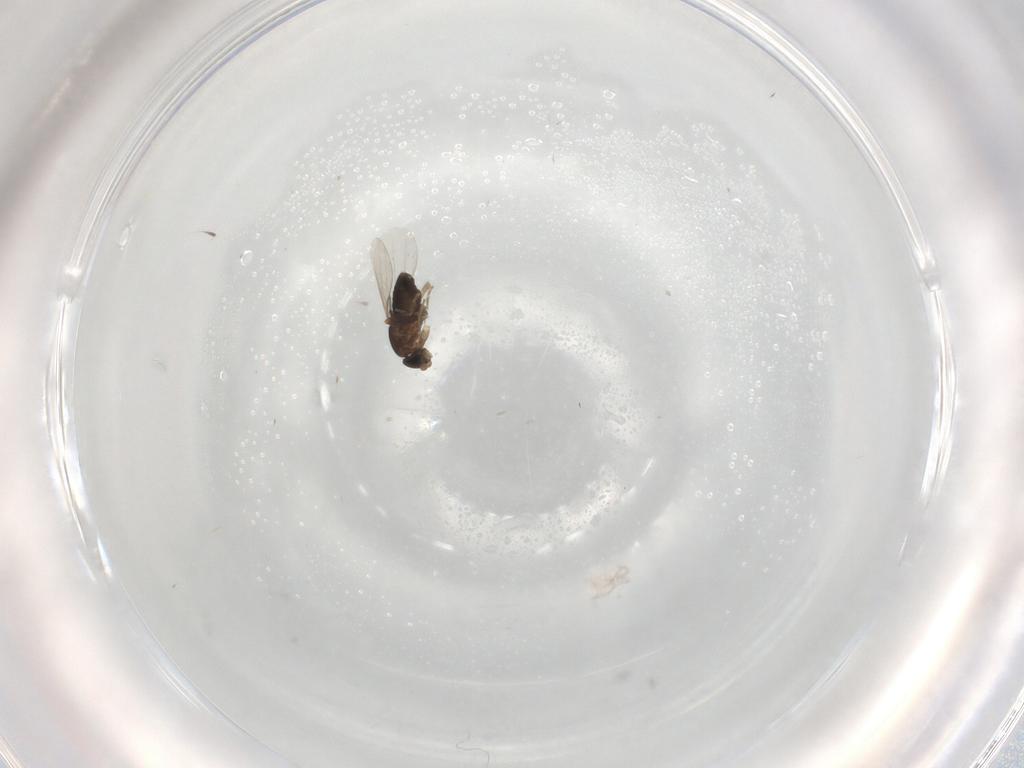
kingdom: Animalia
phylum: Arthropoda
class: Insecta
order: Diptera
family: Phoridae
